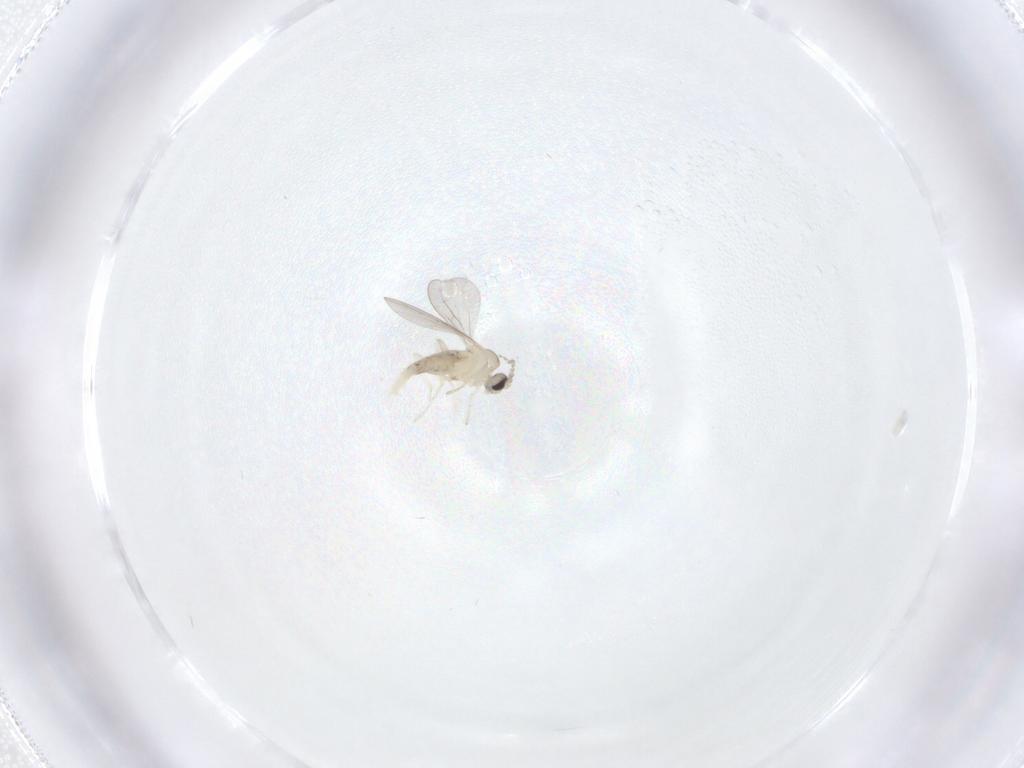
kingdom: Animalia
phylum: Arthropoda
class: Insecta
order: Diptera
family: Cecidomyiidae
